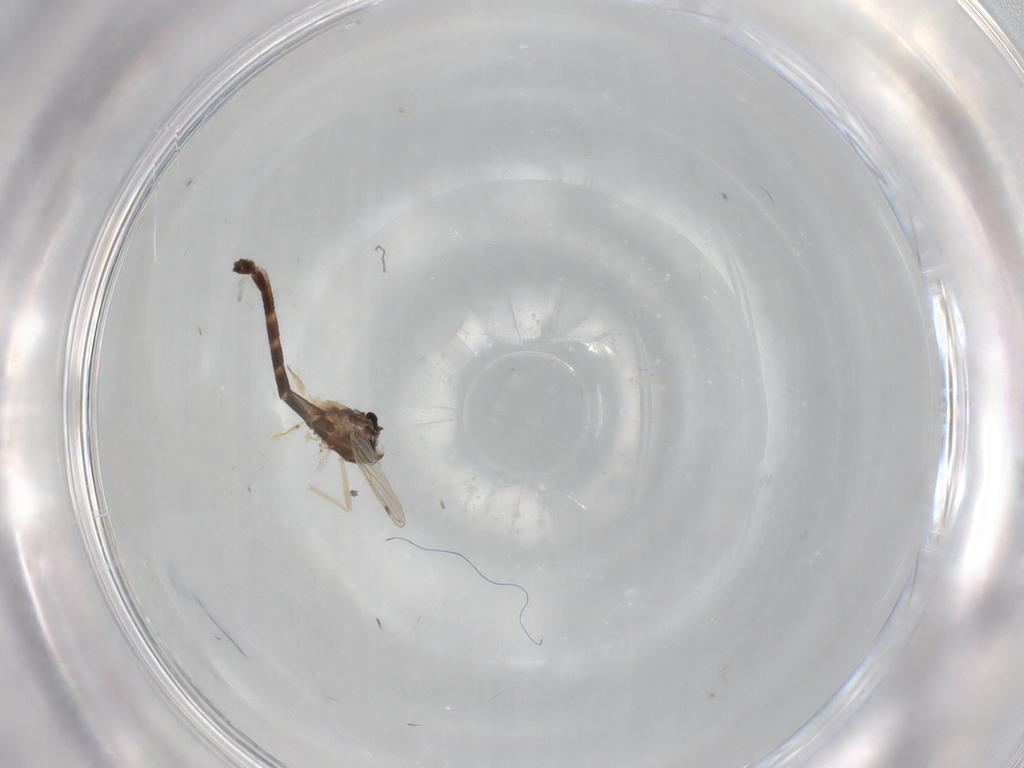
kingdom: Animalia
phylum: Arthropoda
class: Insecta
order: Diptera
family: Chironomidae
